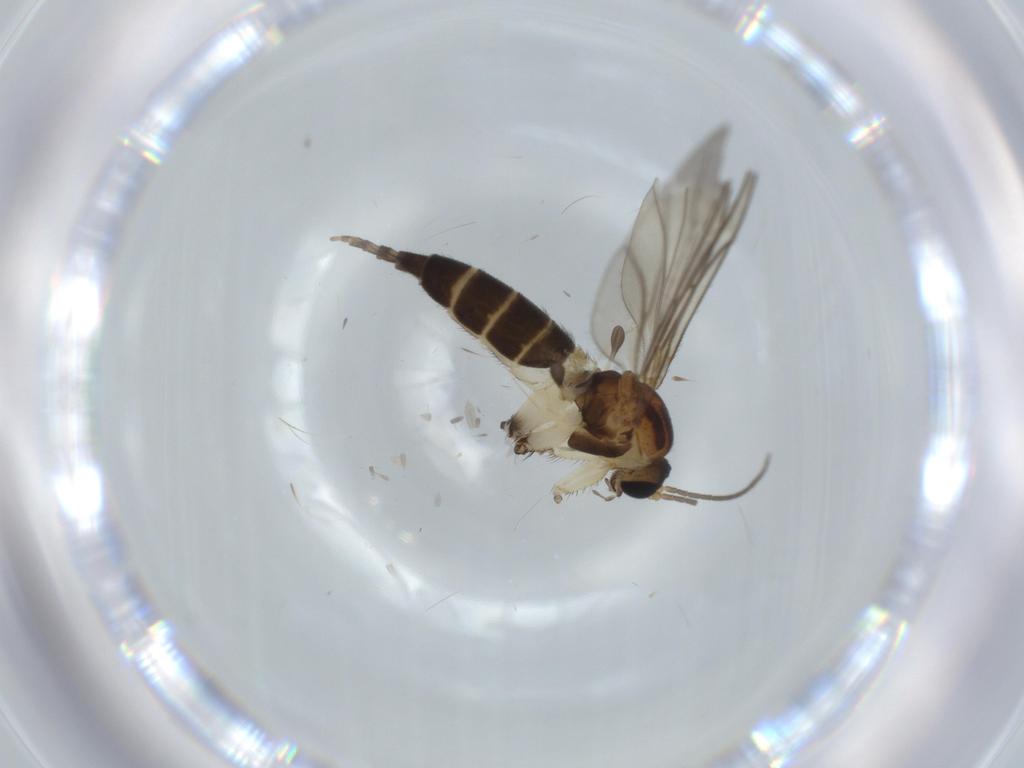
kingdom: Animalia
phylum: Arthropoda
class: Insecta
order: Diptera
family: Sciaridae
